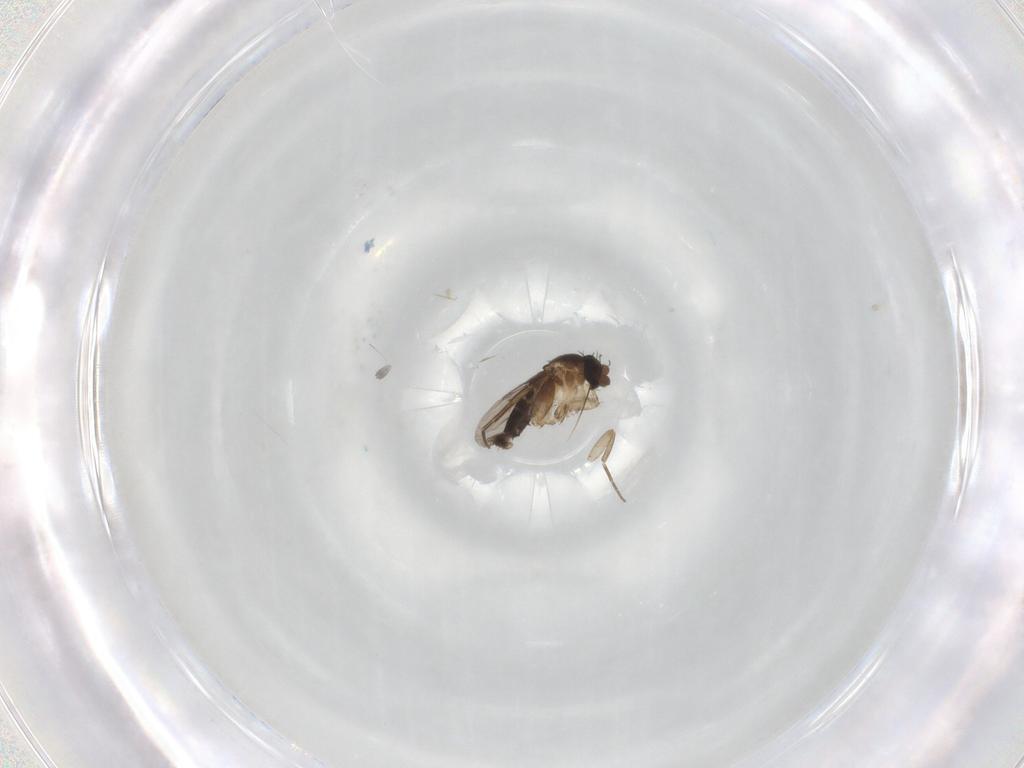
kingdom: Animalia
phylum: Arthropoda
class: Insecta
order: Diptera
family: Phoridae
